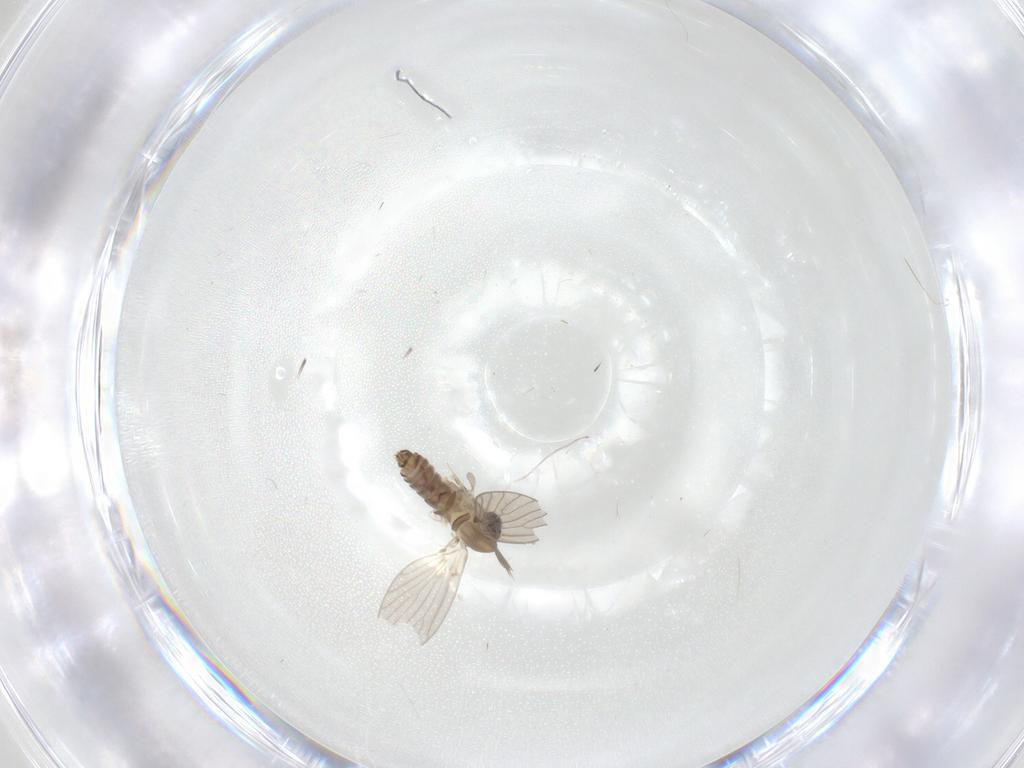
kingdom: Animalia
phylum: Arthropoda
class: Insecta
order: Diptera
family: Psychodidae
